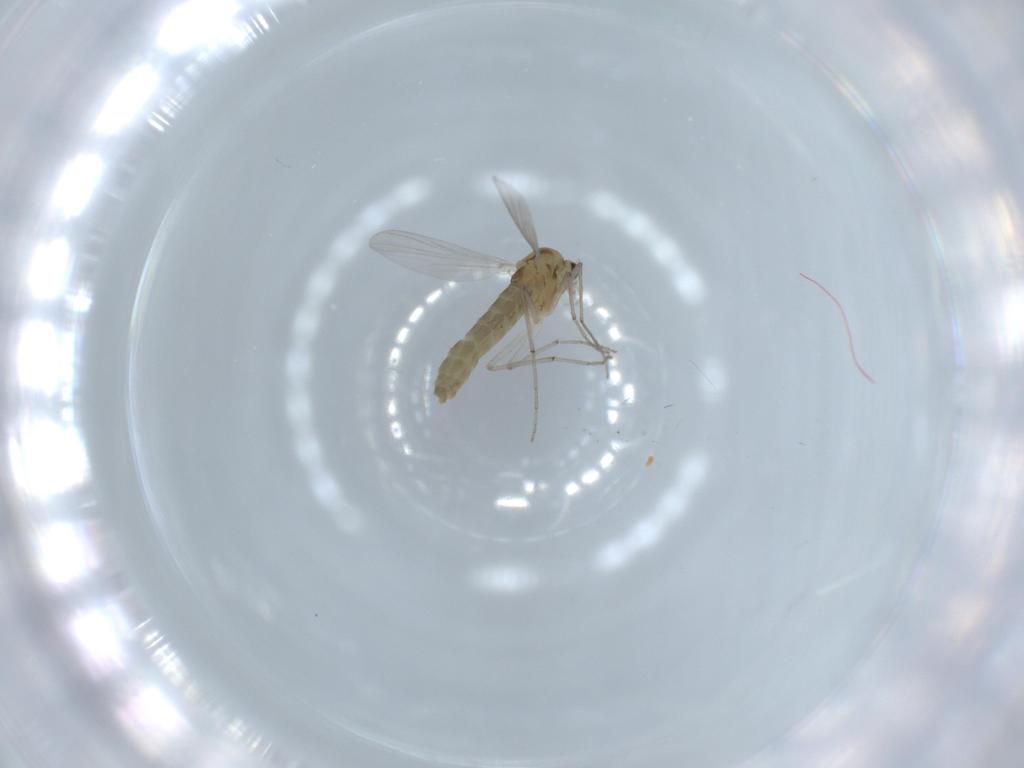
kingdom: Animalia
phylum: Arthropoda
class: Insecta
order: Diptera
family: Chironomidae
